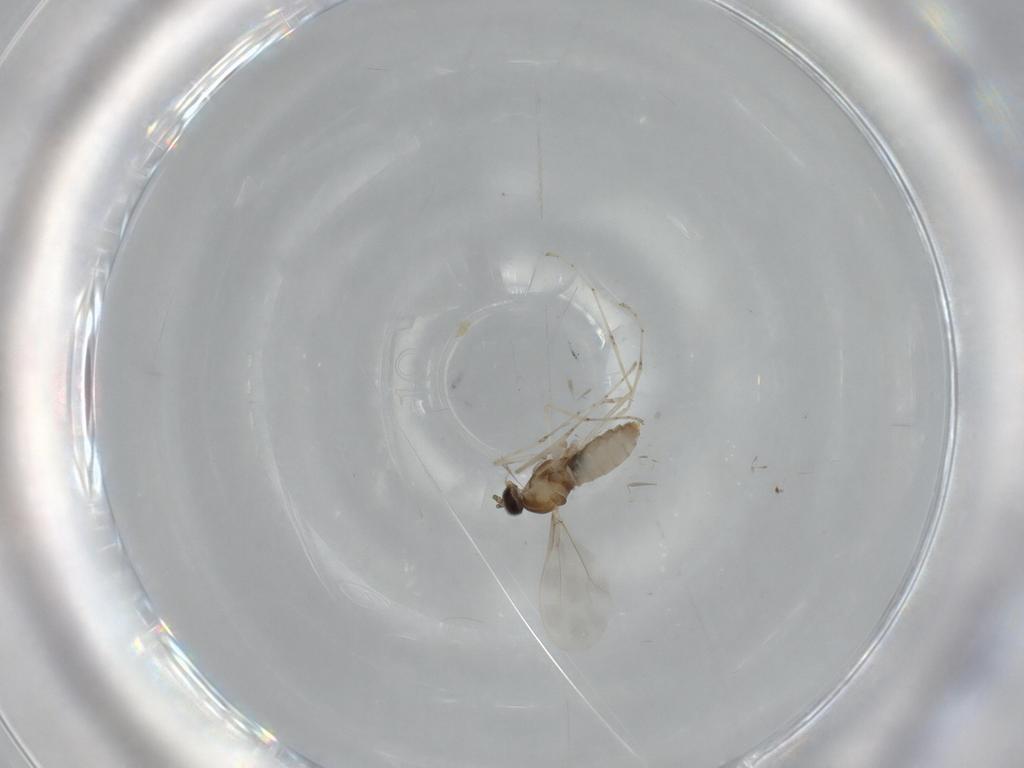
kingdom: Animalia
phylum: Arthropoda
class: Insecta
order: Diptera
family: Cecidomyiidae
